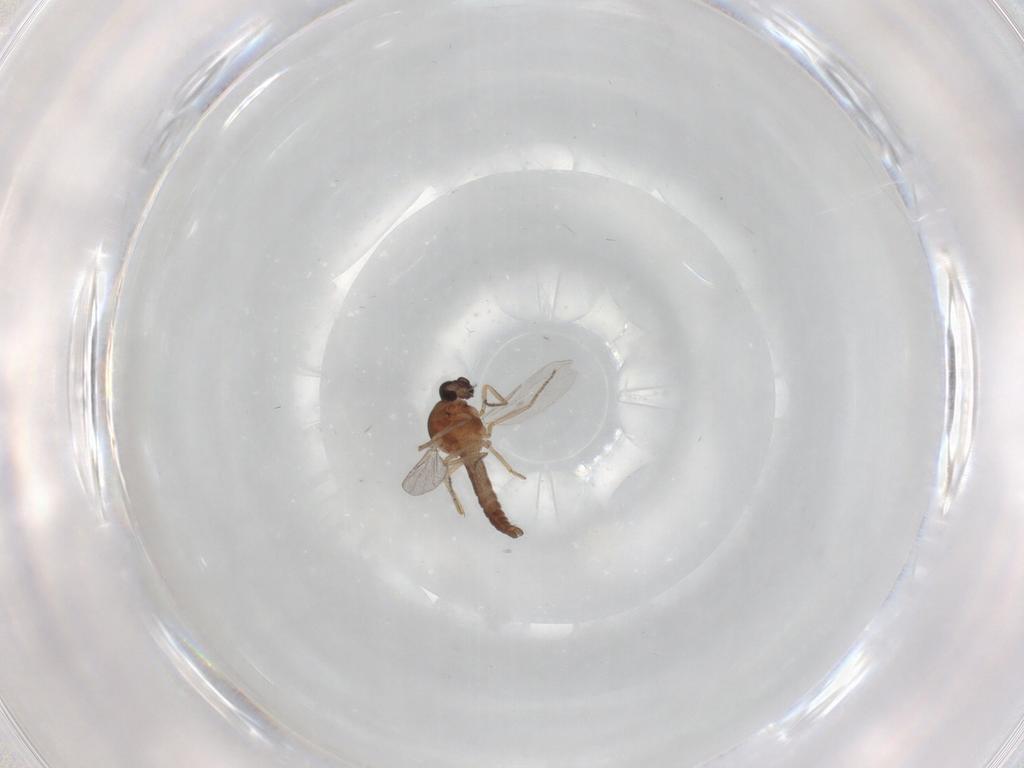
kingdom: Animalia
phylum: Arthropoda
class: Insecta
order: Diptera
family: Ceratopogonidae
